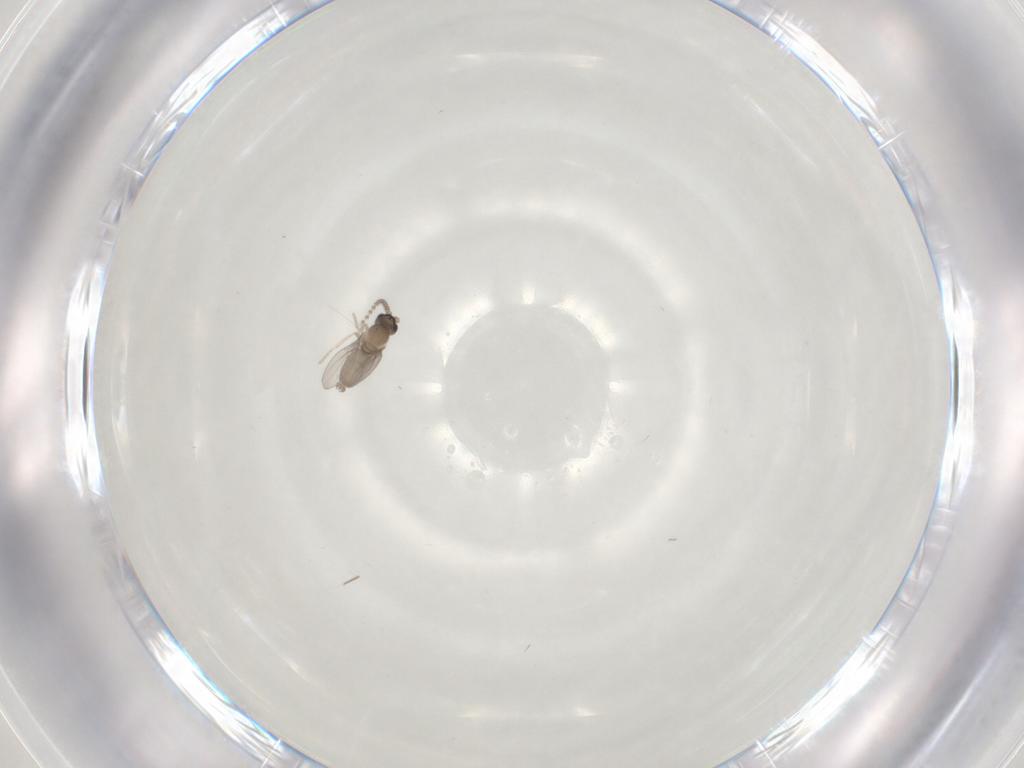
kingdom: Animalia
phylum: Arthropoda
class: Insecta
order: Diptera
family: Cecidomyiidae
